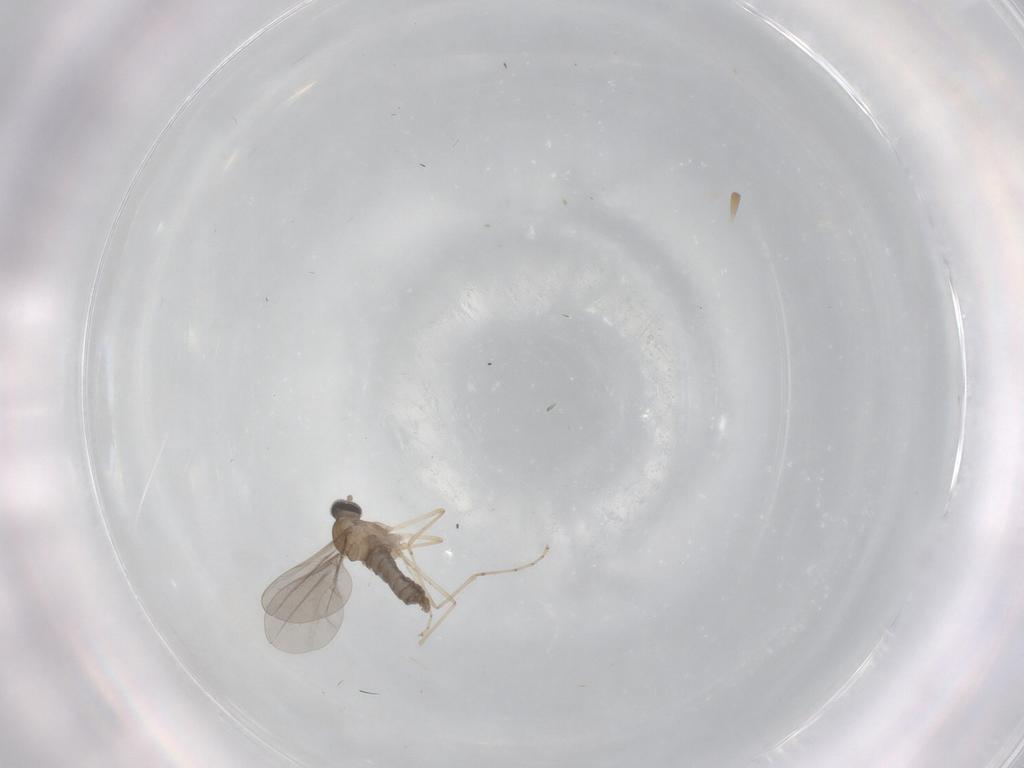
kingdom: Animalia
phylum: Arthropoda
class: Insecta
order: Diptera
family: Cecidomyiidae
